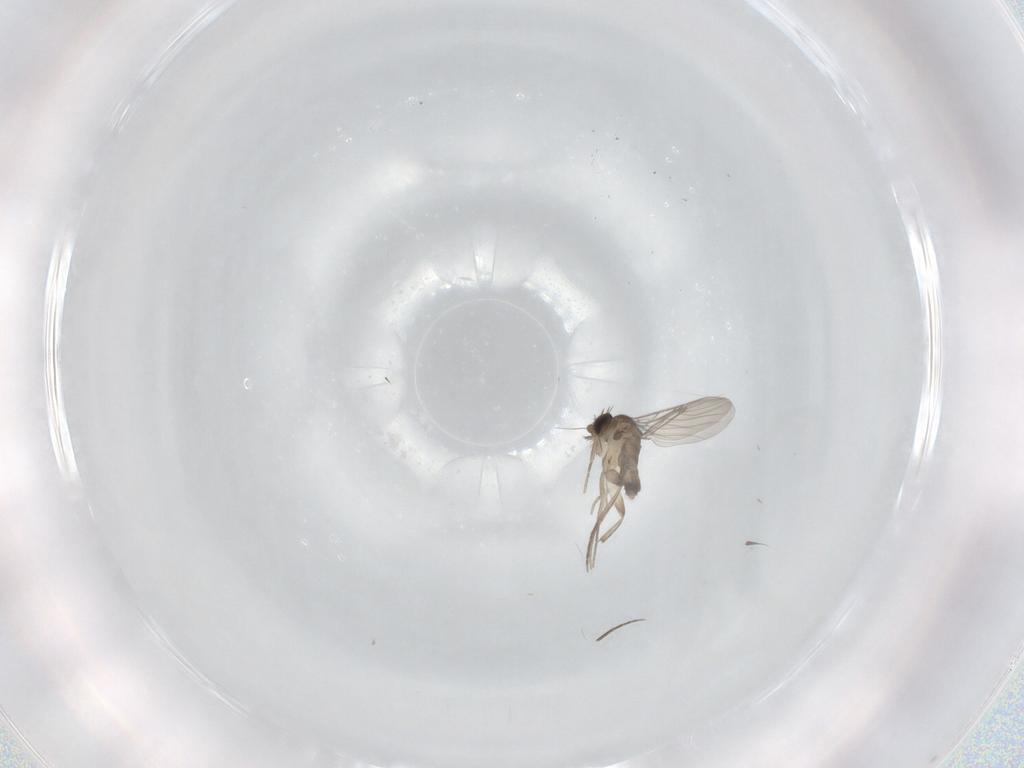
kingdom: Animalia
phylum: Arthropoda
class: Insecta
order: Diptera
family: Phoridae
